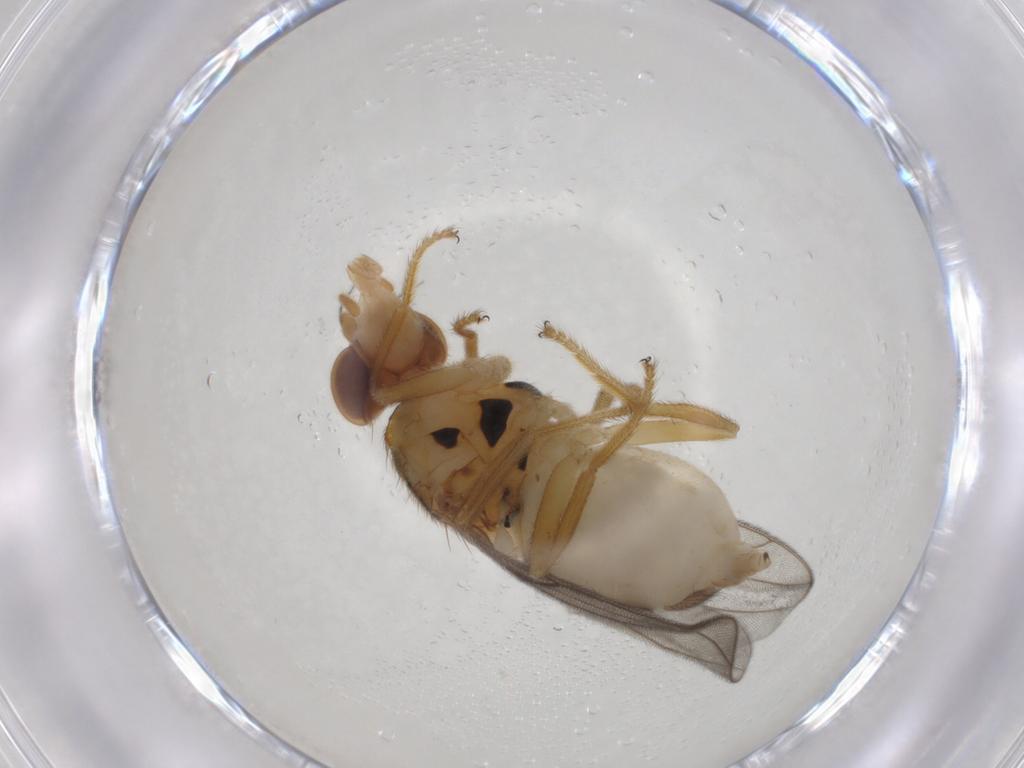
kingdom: Animalia
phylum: Arthropoda
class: Insecta
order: Diptera
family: Chloropidae
